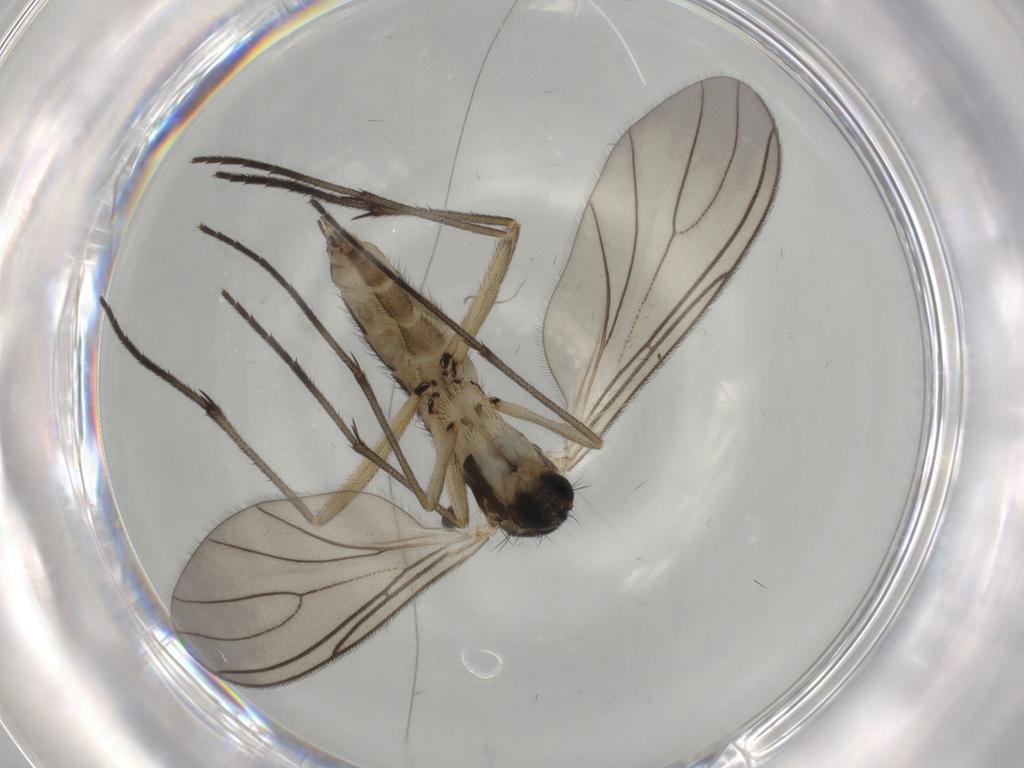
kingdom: Animalia
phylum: Arthropoda
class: Insecta
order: Diptera
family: Sciaridae
